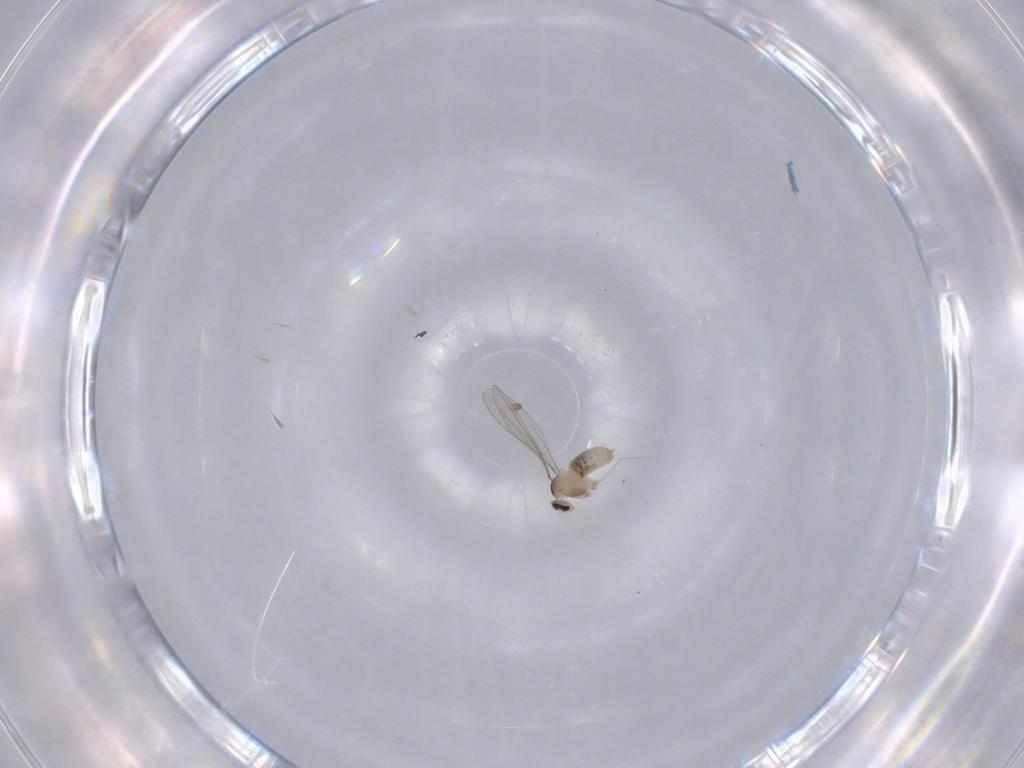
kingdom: Animalia
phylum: Arthropoda
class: Insecta
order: Diptera
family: Cecidomyiidae
